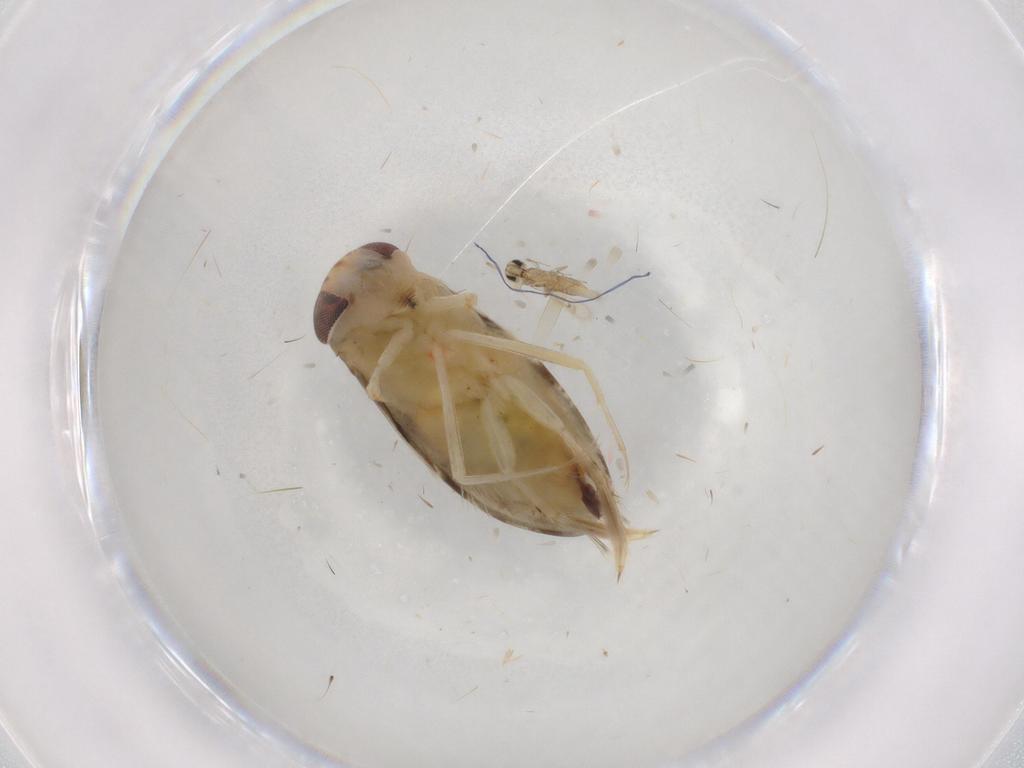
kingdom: Animalia
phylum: Arthropoda
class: Insecta
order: Hymenoptera
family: Trichogrammatidae
